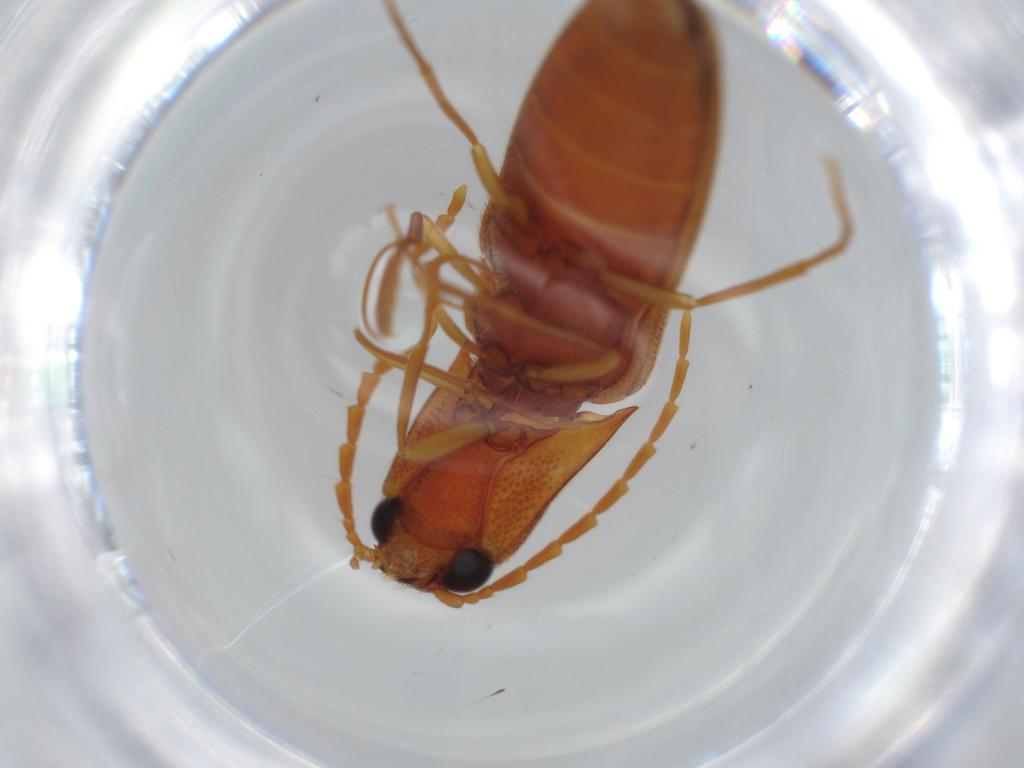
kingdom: Animalia
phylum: Arthropoda
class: Insecta
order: Coleoptera
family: Elateridae
